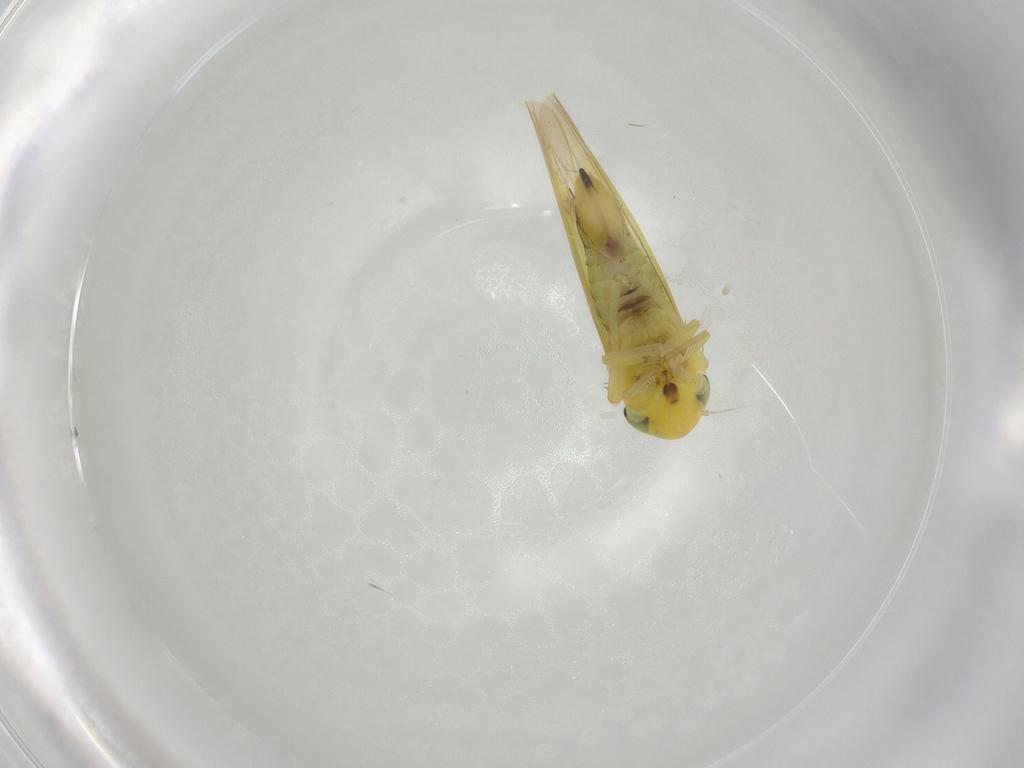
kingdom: Animalia
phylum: Arthropoda
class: Insecta
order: Hemiptera
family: Cicadellidae
